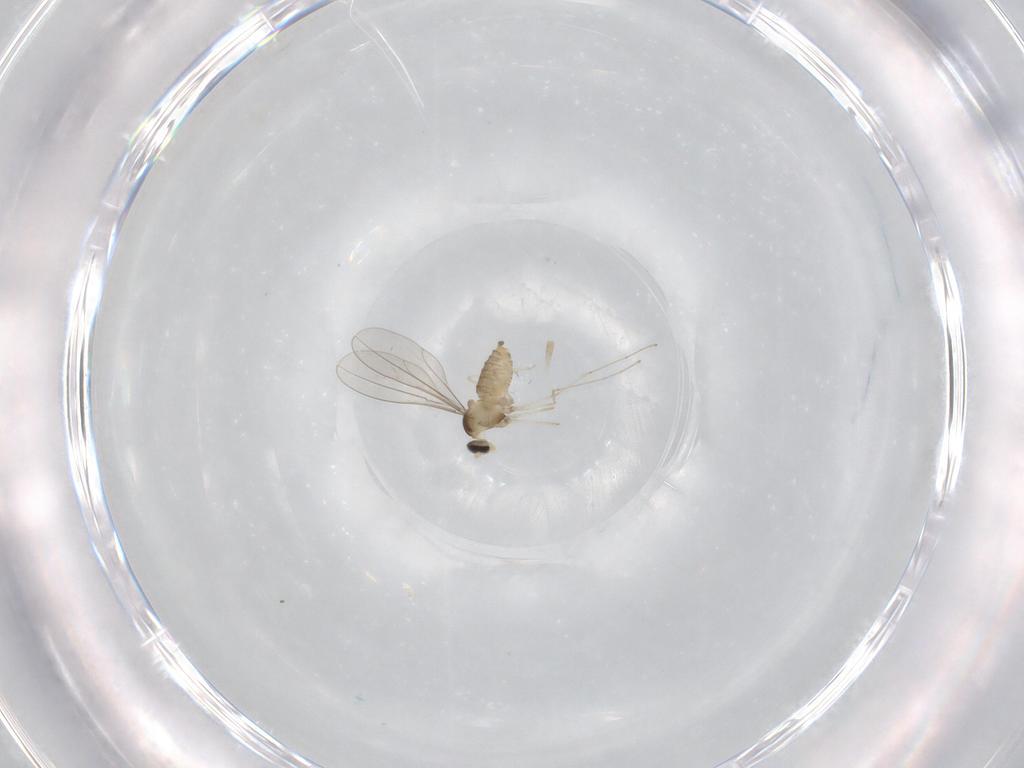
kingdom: Animalia
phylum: Arthropoda
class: Insecta
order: Diptera
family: Cecidomyiidae
